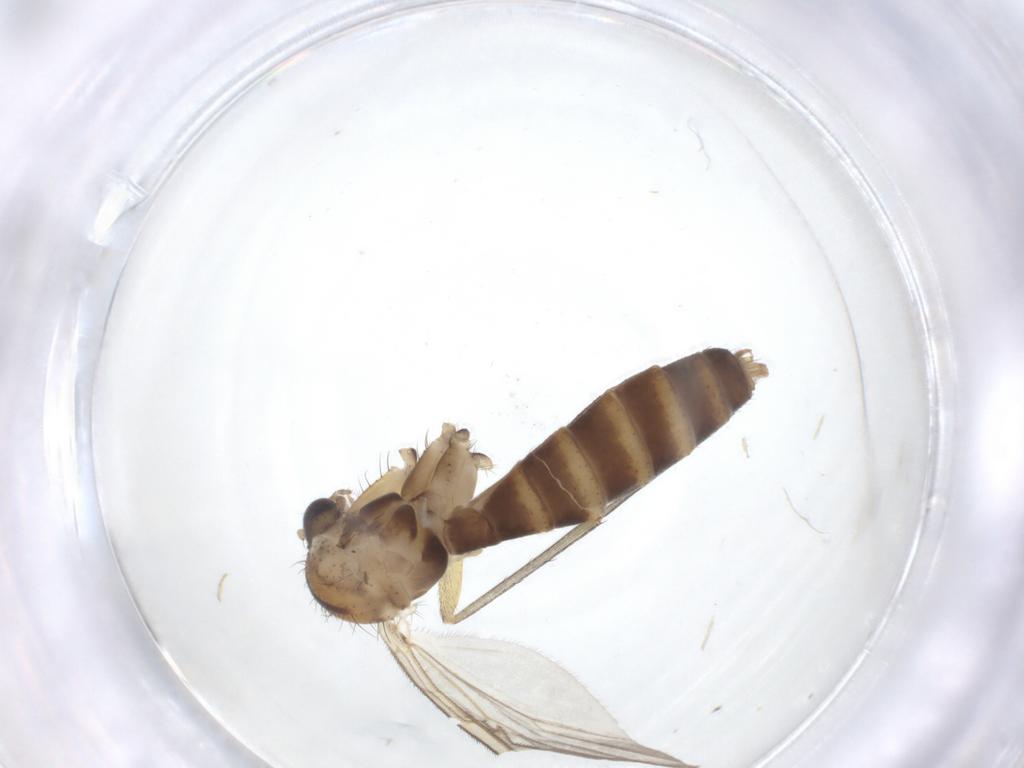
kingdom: Animalia
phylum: Arthropoda
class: Insecta
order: Diptera
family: Mycetophilidae
